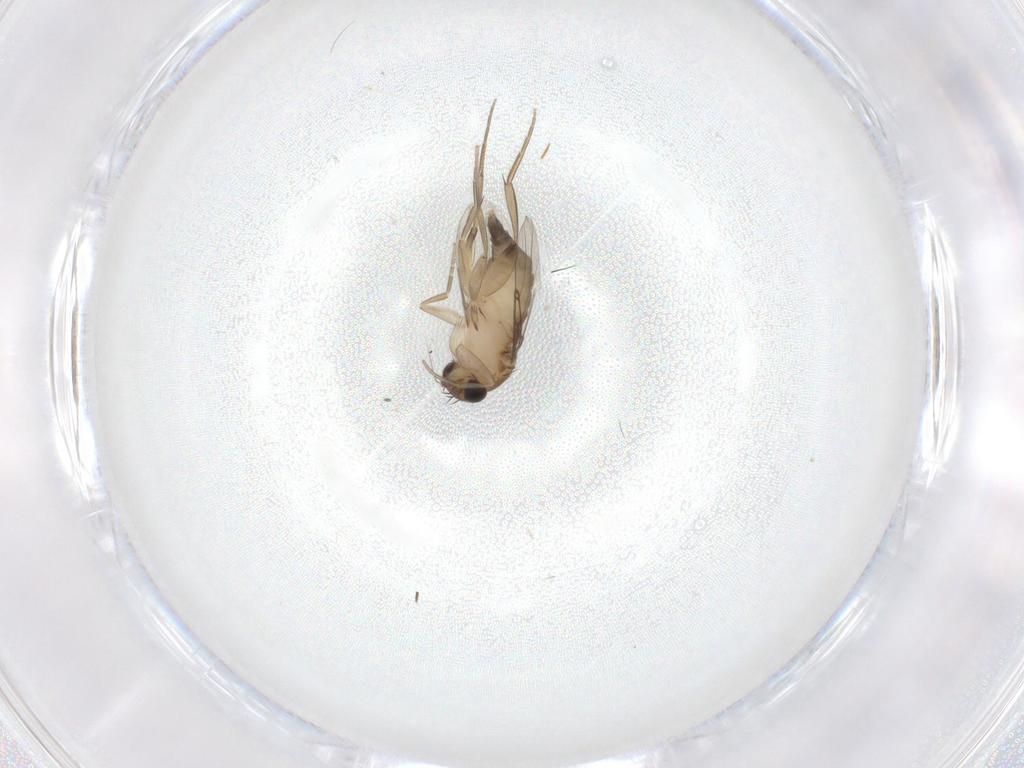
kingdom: Animalia
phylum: Arthropoda
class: Insecta
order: Diptera
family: Phoridae
